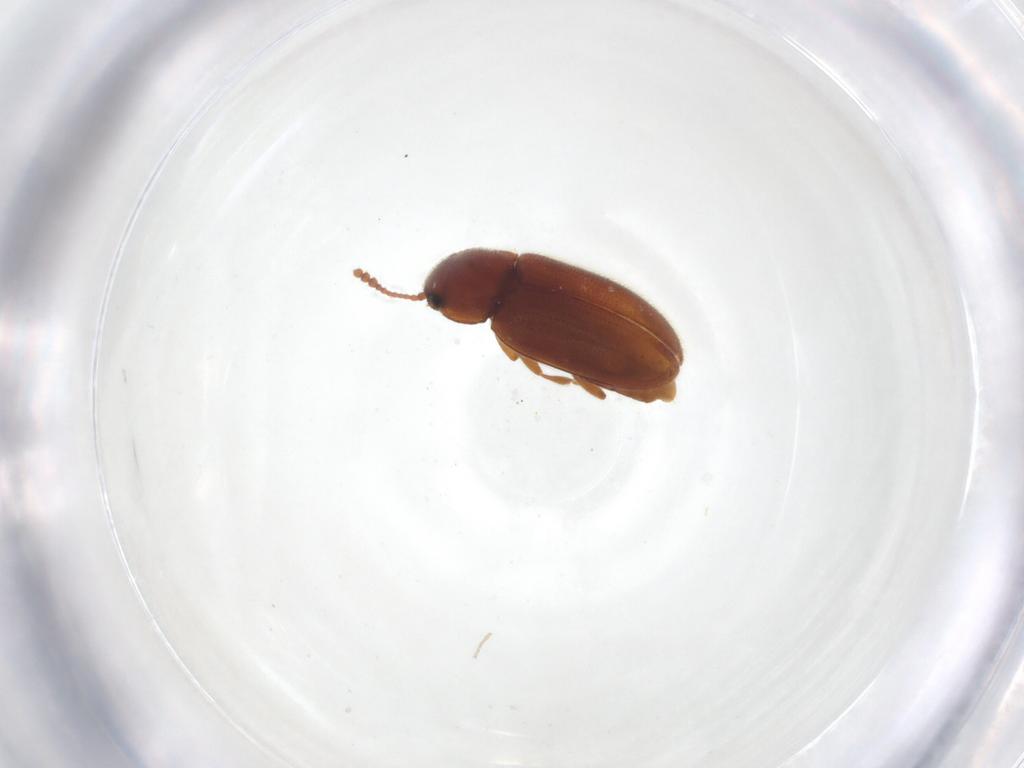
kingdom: Animalia
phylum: Arthropoda
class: Insecta
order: Coleoptera
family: Erotylidae
